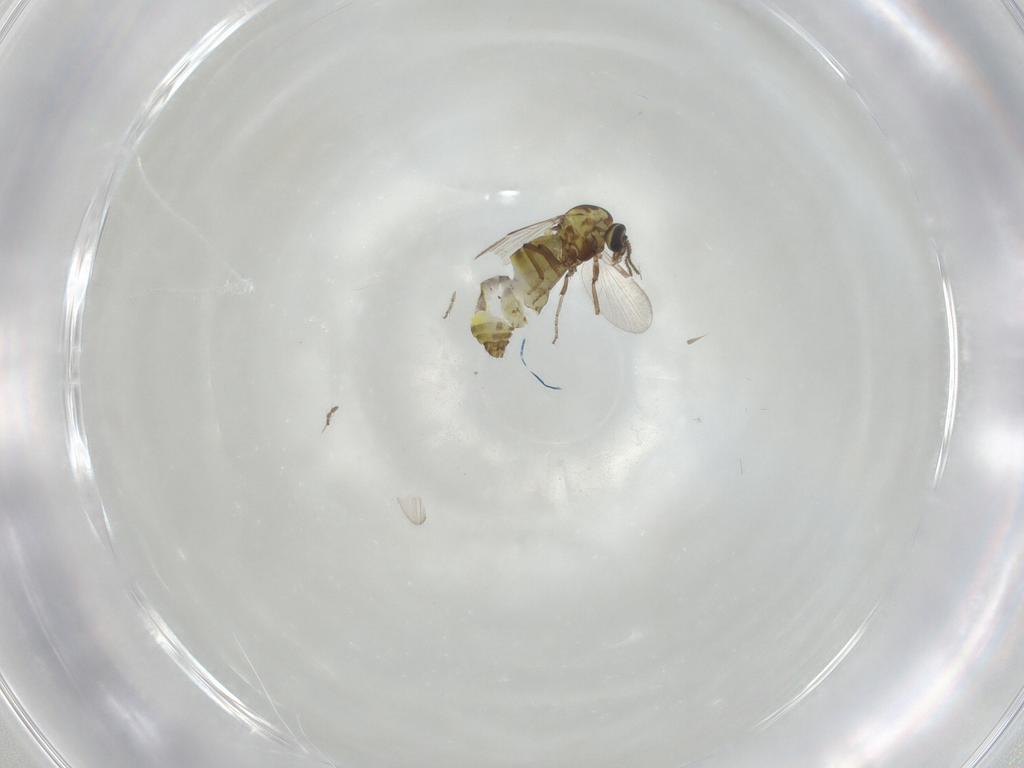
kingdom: Animalia
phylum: Arthropoda
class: Insecta
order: Diptera
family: Ceratopogonidae
